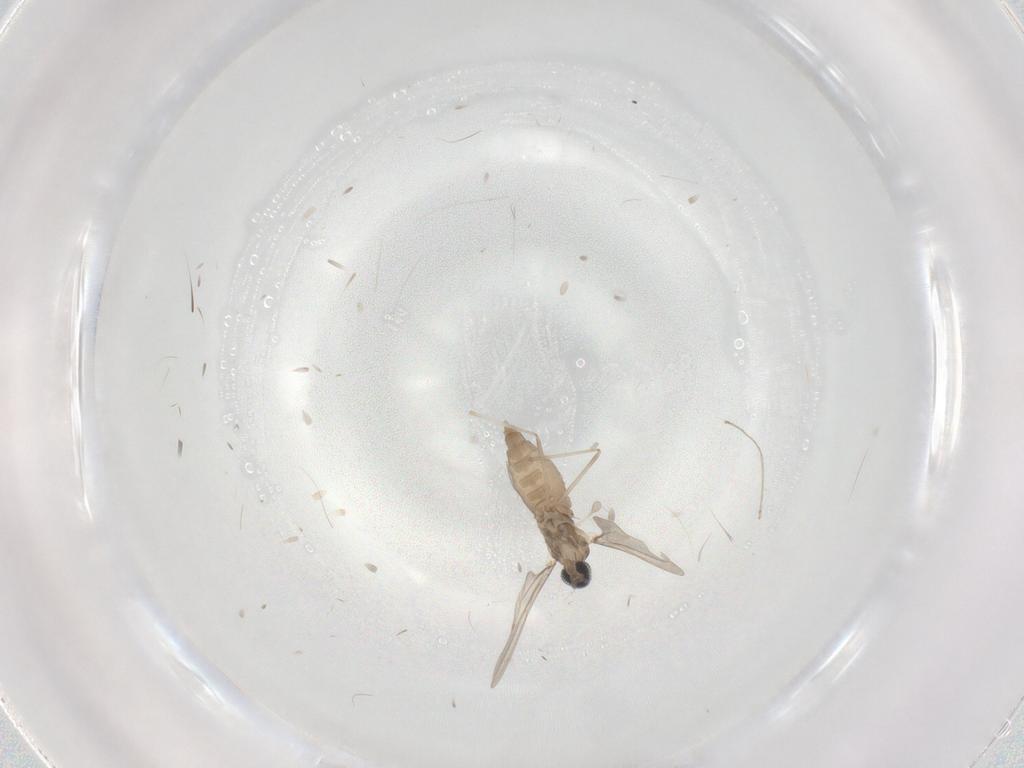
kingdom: Animalia
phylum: Arthropoda
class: Insecta
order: Diptera
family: Cecidomyiidae
